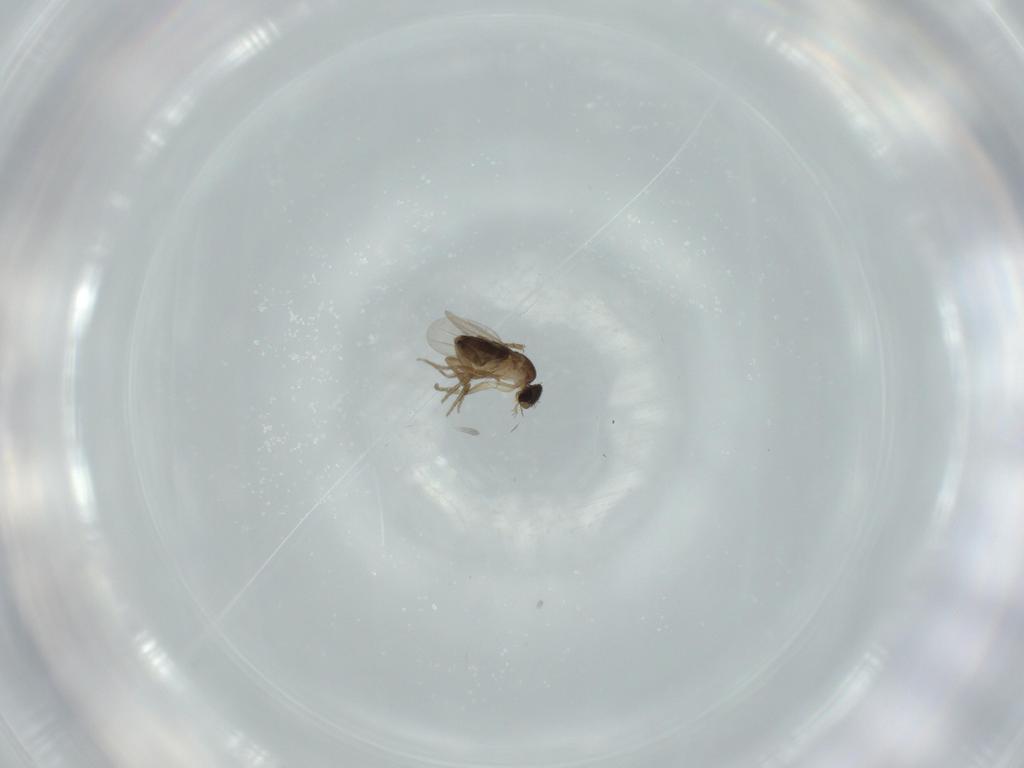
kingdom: Animalia
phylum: Arthropoda
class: Insecta
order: Diptera
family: Phoridae
